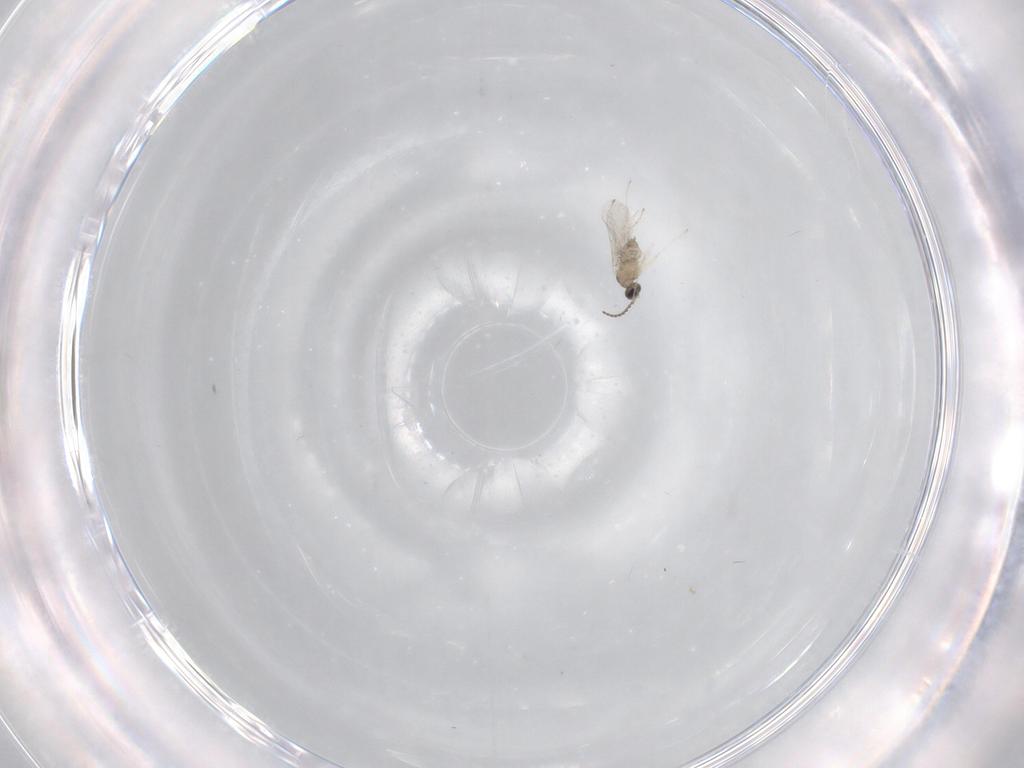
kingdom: Animalia
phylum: Arthropoda
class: Insecta
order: Diptera
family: Cecidomyiidae
